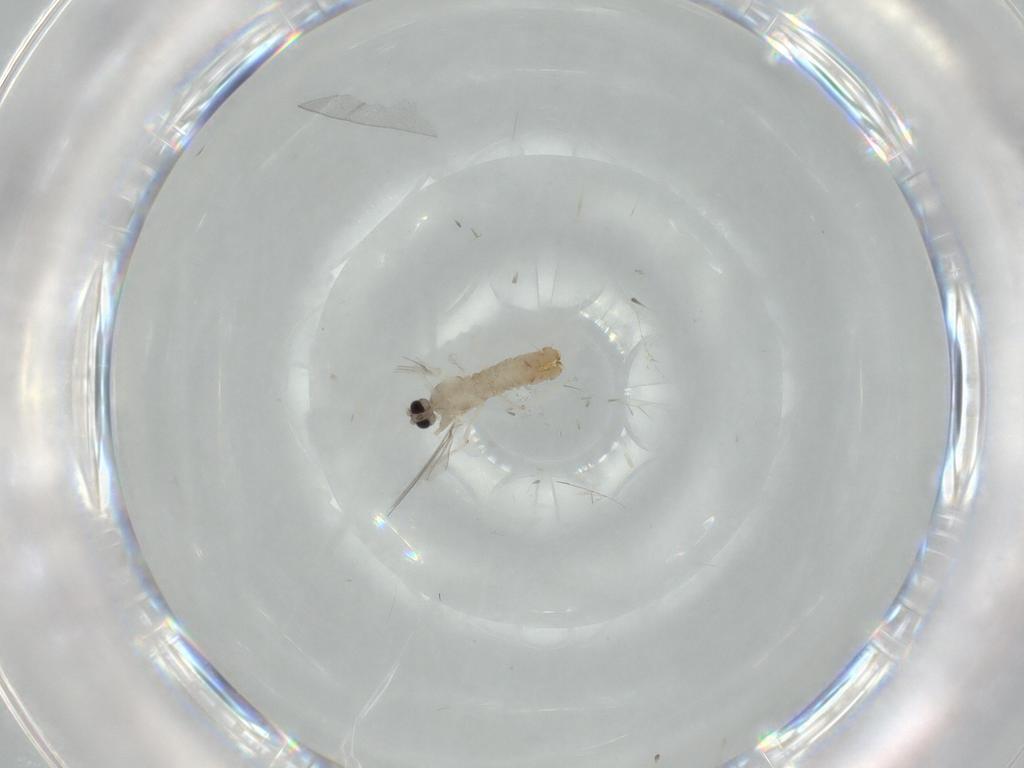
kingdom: Animalia
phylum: Arthropoda
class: Insecta
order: Diptera
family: Cecidomyiidae
